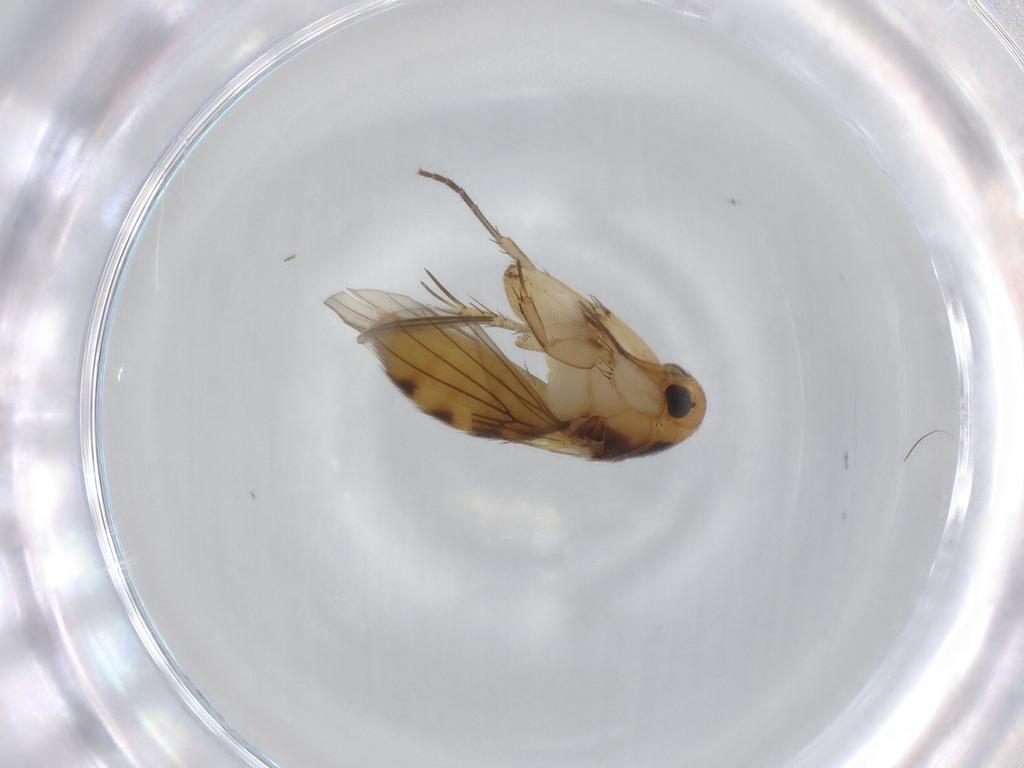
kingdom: Animalia
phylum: Arthropoda
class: Insecta
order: Diptera
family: Mycetophilidae
